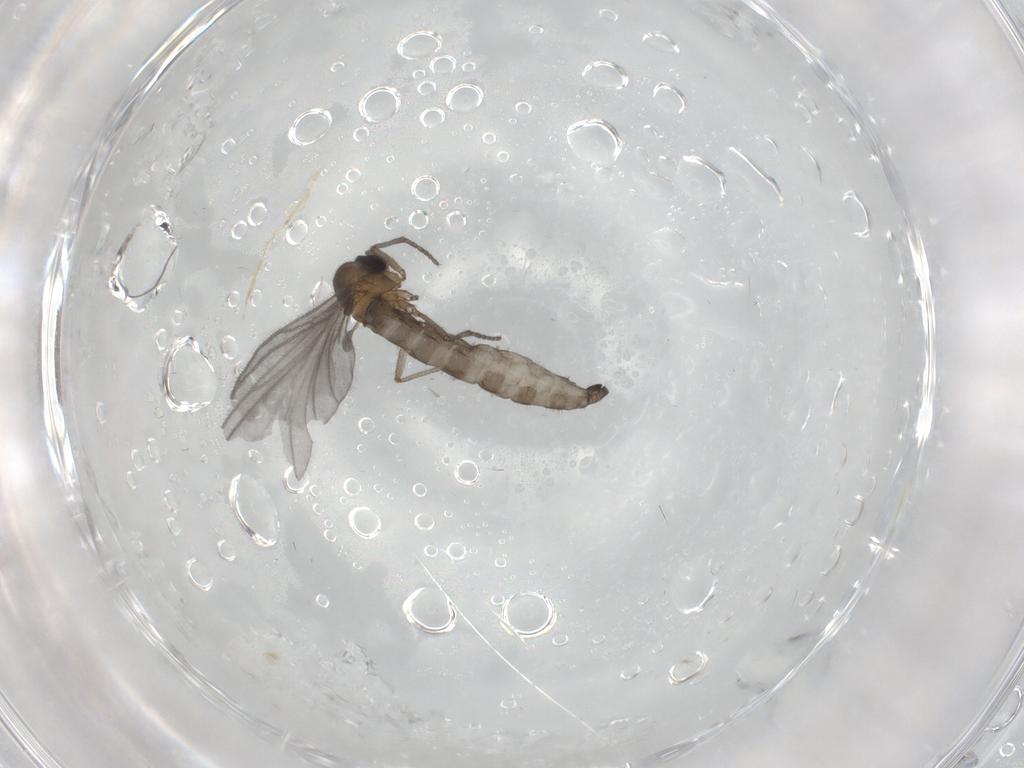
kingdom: Animalia
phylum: Arthropoda
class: Insecta
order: Diptera
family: Sciaridae
